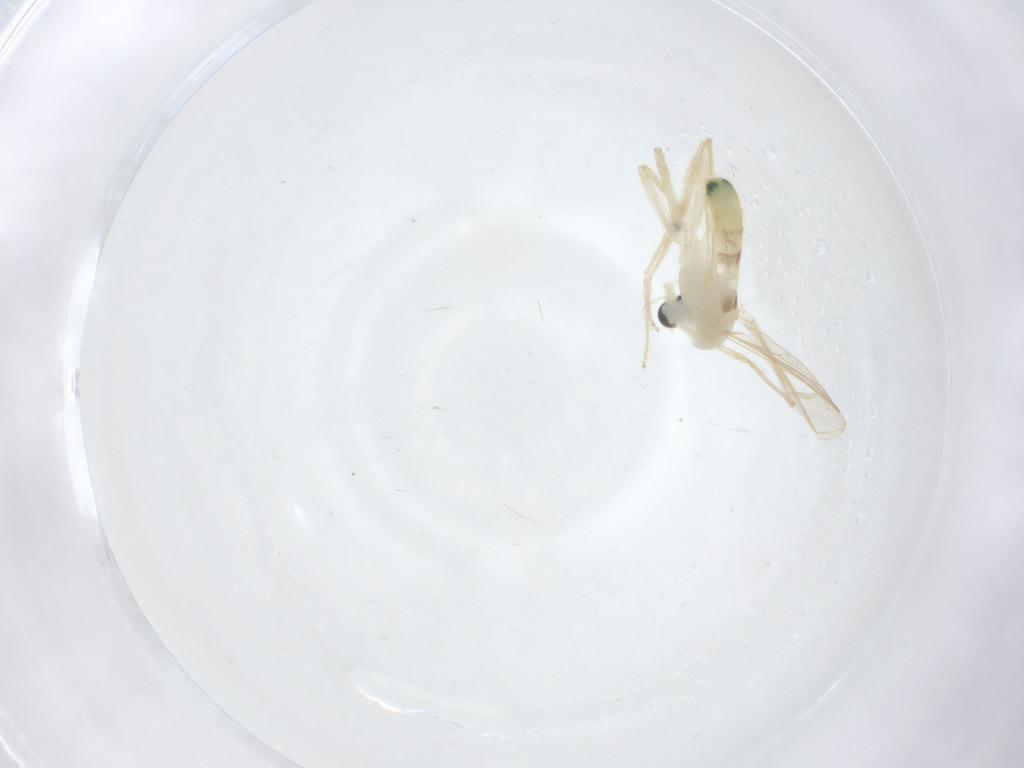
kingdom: Animalia
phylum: Arthropoda
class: Insecta
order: Diptera
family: Chironomidae
